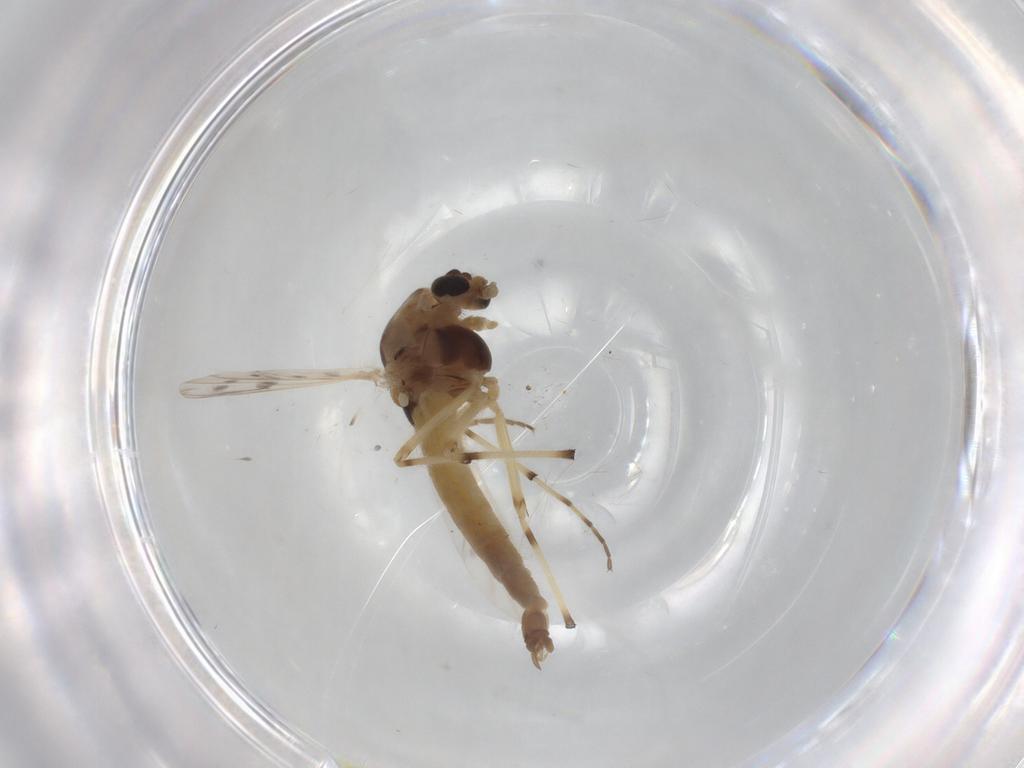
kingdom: Animalia
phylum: Arthropoda
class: Insecta
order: Diptera
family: Chironomidae
